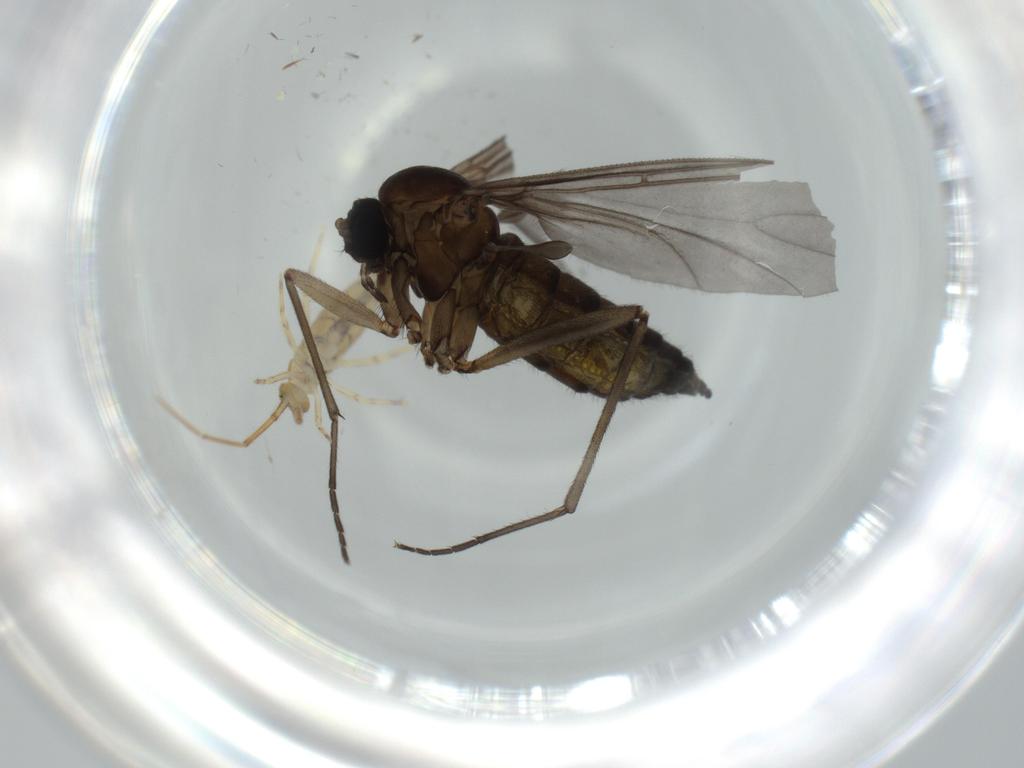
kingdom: Animalia
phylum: Arthropoda
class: Insecta
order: Diptera
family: Sciaridae
